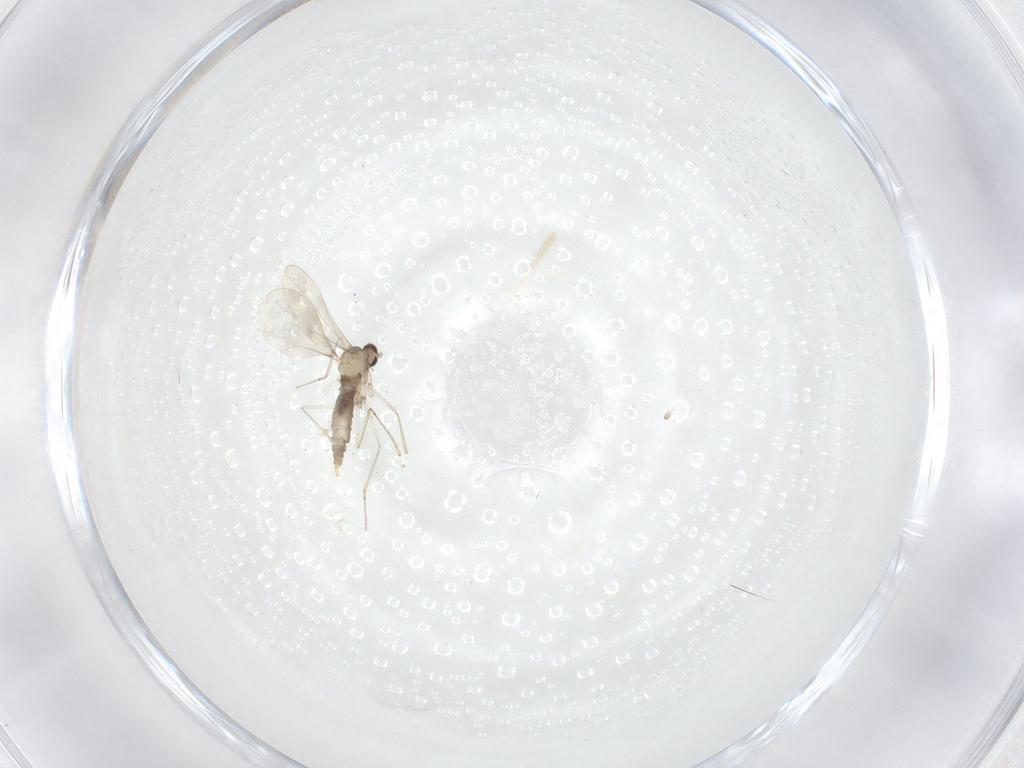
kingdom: Animalia
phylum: Arthropoda
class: Insecta
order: Diptera
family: Cecidomyiidae
